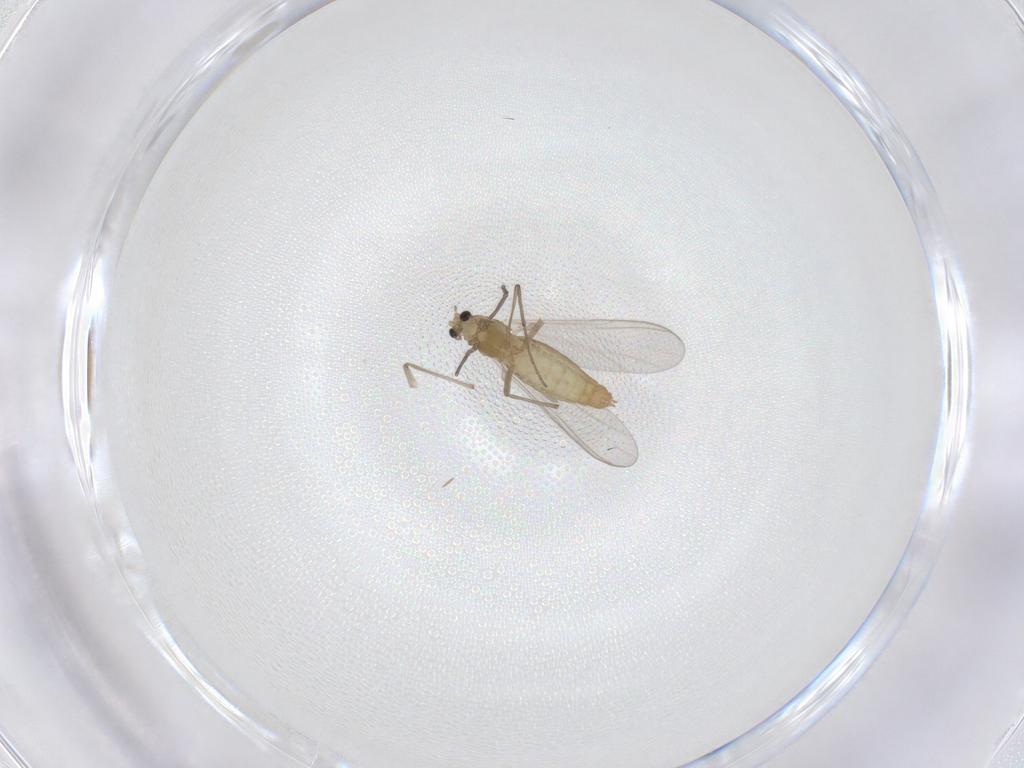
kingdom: Animalia
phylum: Arthropoda
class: Insecta
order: Diptera
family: Chironomidae
